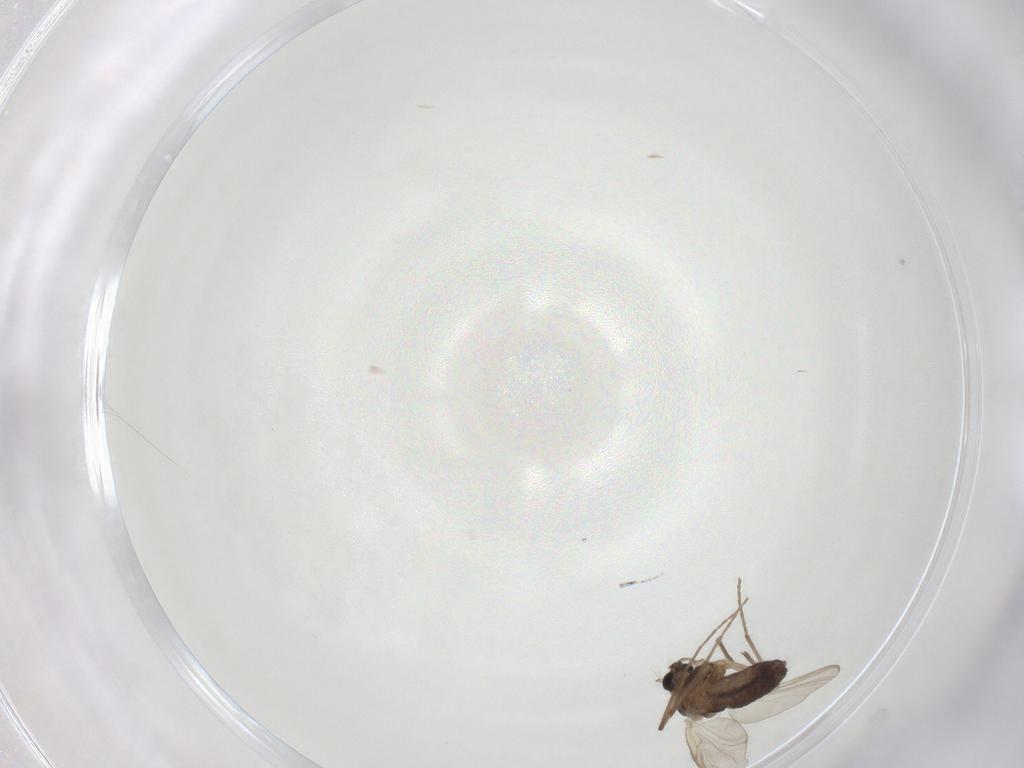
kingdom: Animalia
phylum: Arthropoda
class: Insecta
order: Diptera
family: Chironomidae
